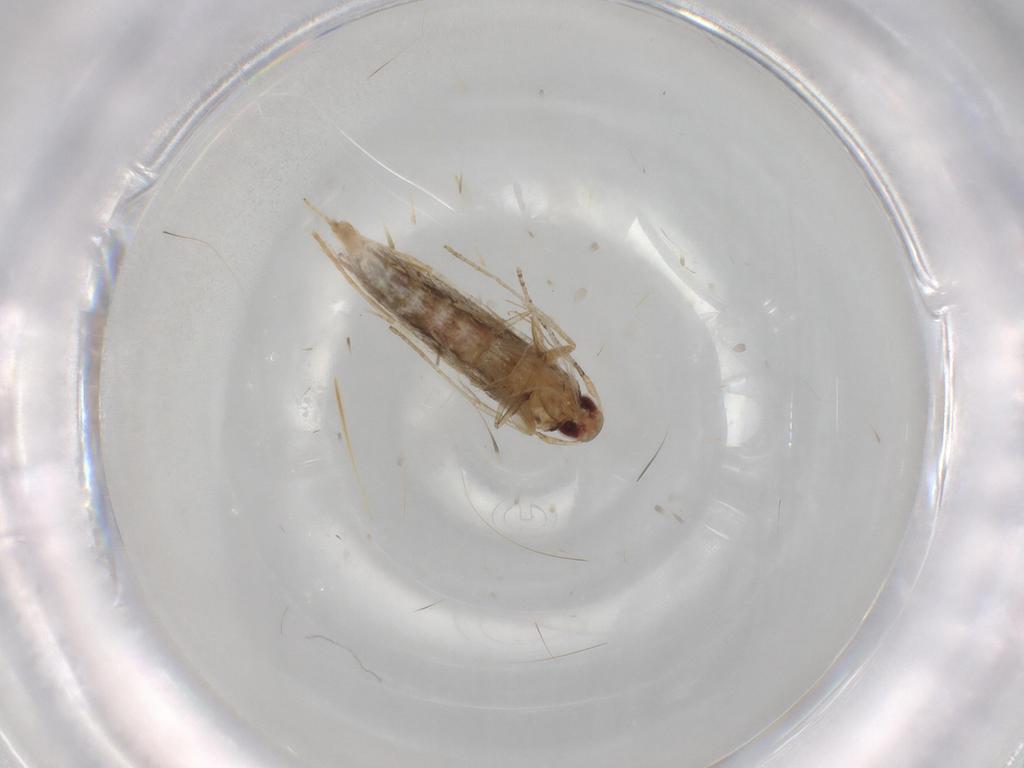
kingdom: Animalia
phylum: Arthropoda
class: Insecta
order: Lepidoptera
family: Cosmopterigidae
